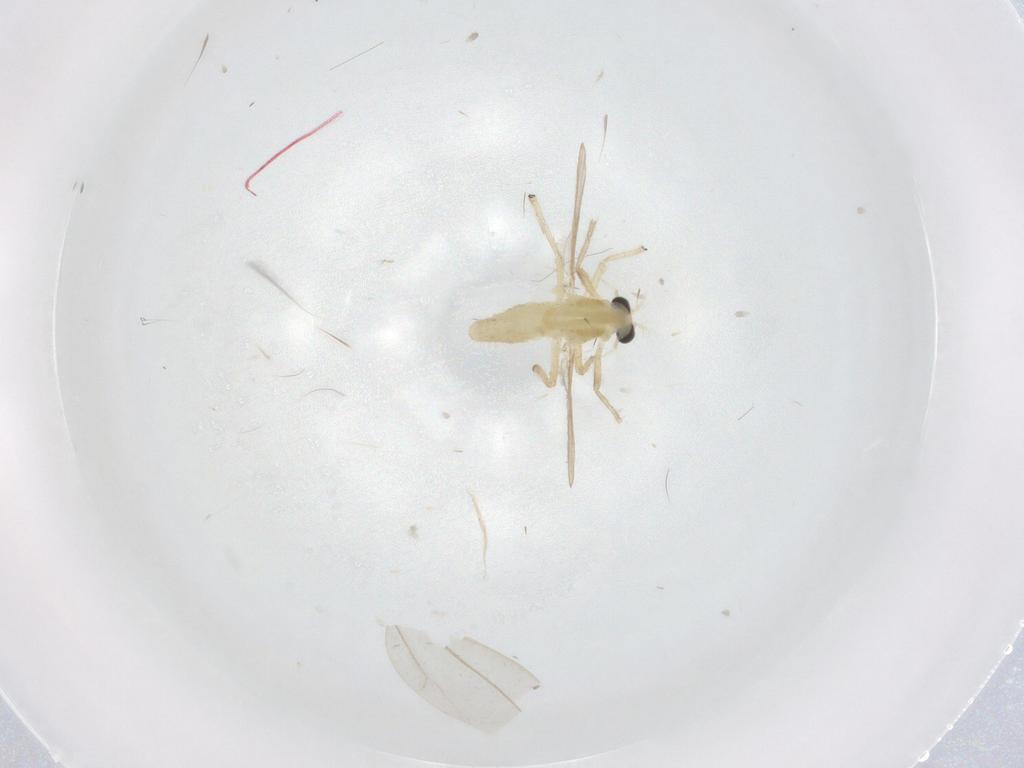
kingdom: Animalia
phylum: Arthropoda
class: Insecta
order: Diptera
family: Chironomidae
